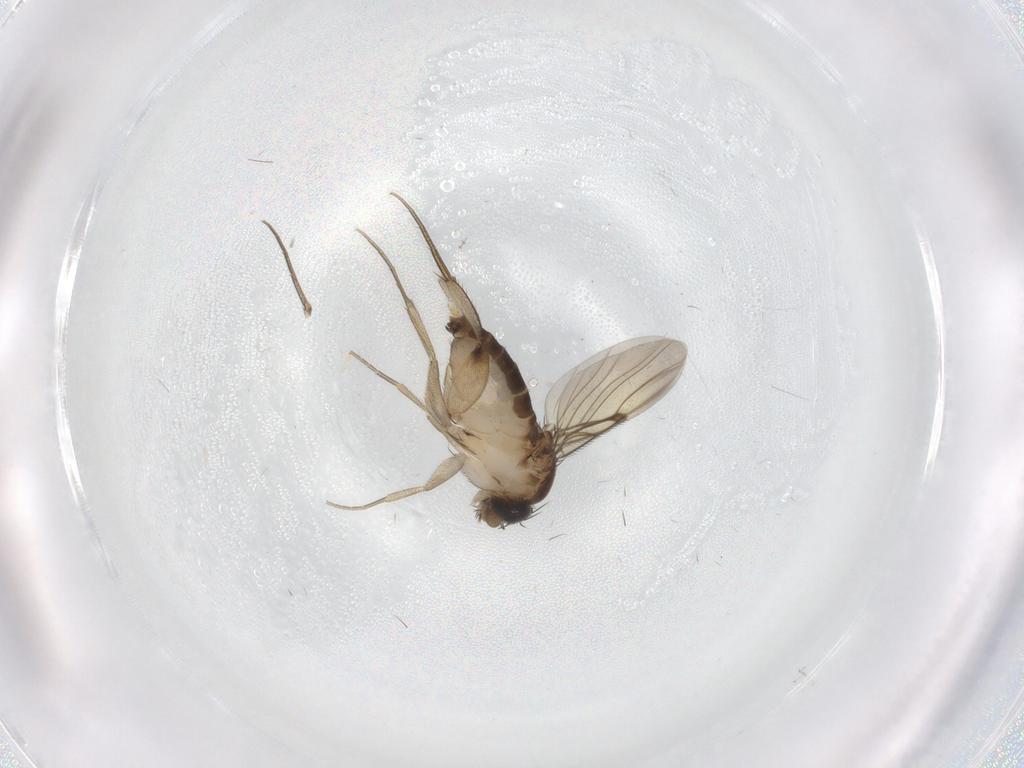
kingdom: Animalia
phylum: Arthropoda
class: Insecta
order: Diptera
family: Phoridae
